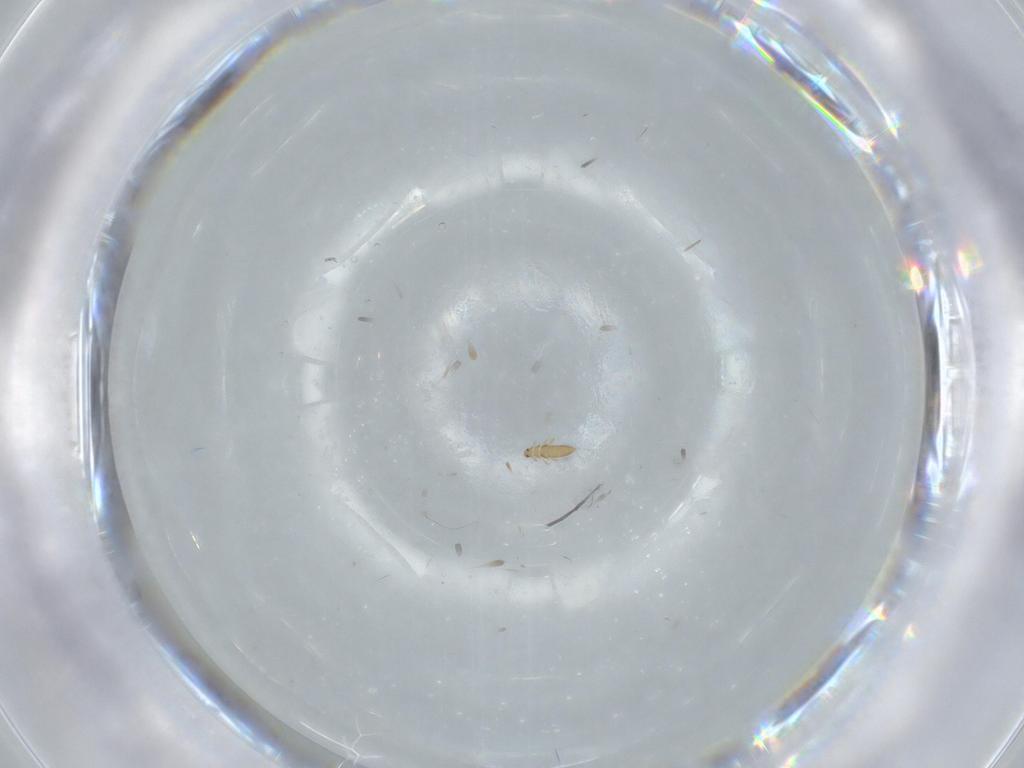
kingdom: Animalia
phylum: Arthropoda
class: Insecta
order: Coleoptera
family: Ripiphoridae
